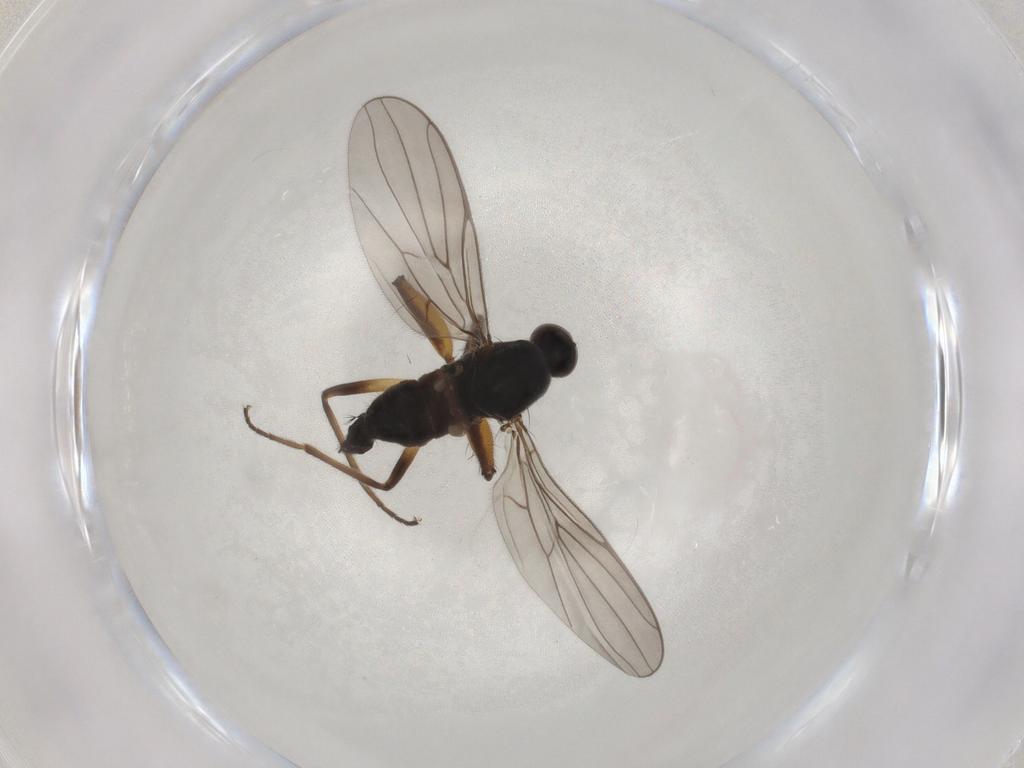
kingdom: Animalia
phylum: Arthropoda
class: Insecta
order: Diptera
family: Hybotidae
